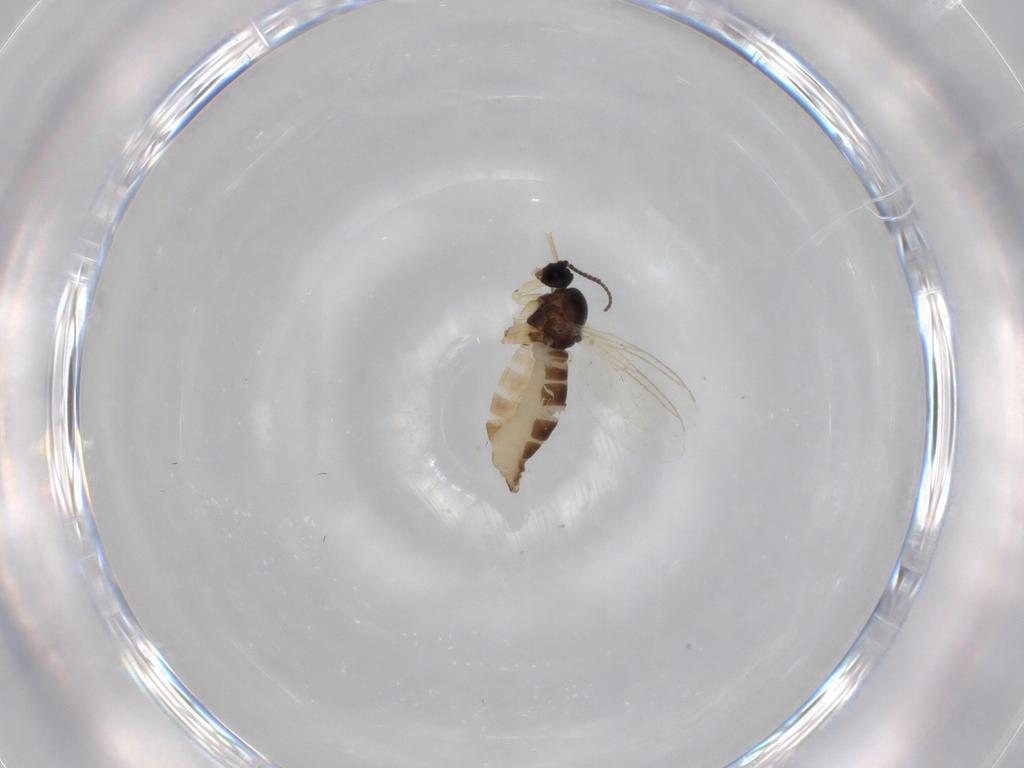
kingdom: Animalia
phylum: Arthropoda
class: Insecta
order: Diptera
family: Sciaridae
